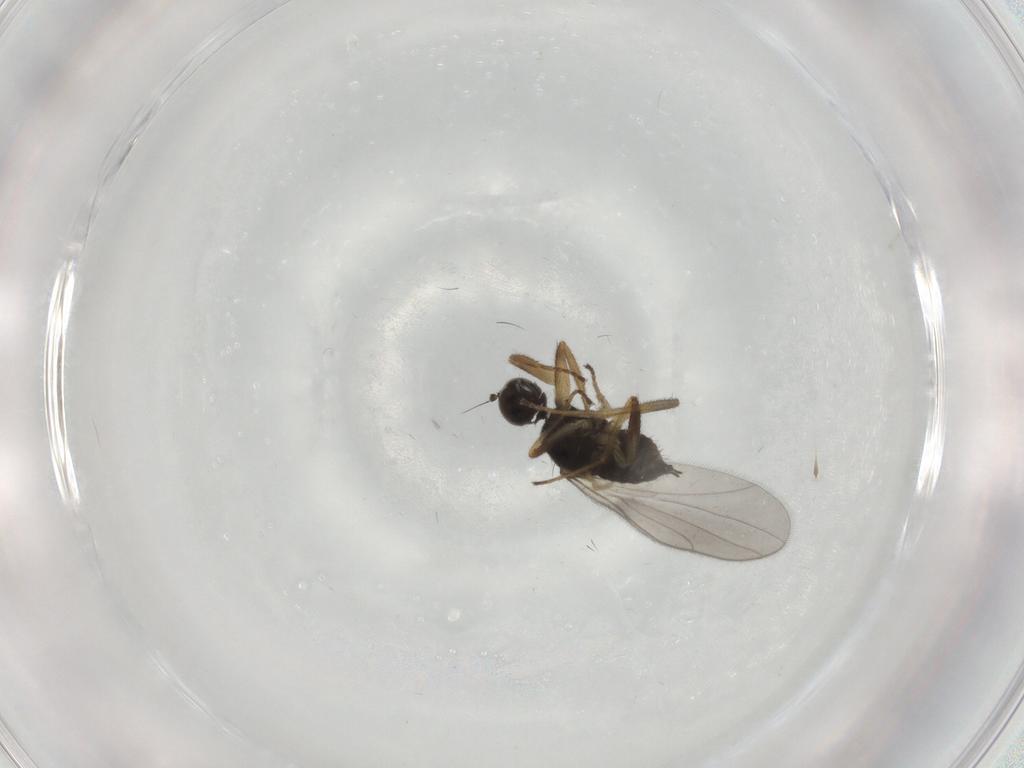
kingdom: Animalia
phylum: Arthropoda
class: Insecta
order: Diptera
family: Hybotidae
